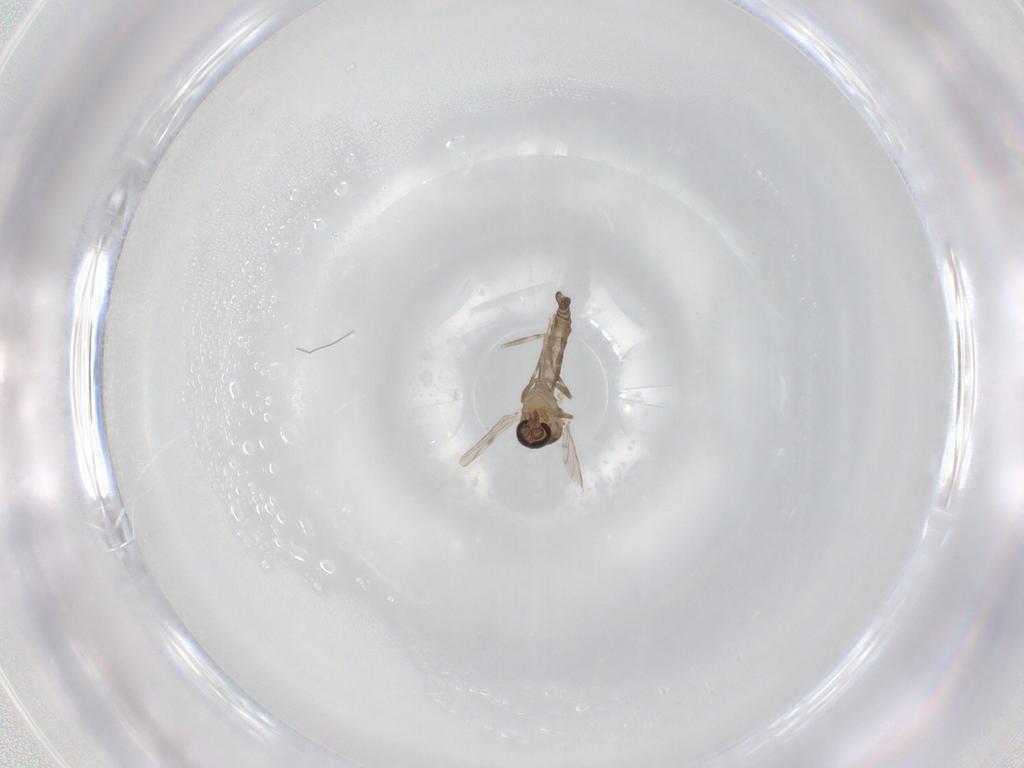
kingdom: Animalia
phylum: Arthropoda
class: Insecta
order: Diptera
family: Ceratopogonidae
